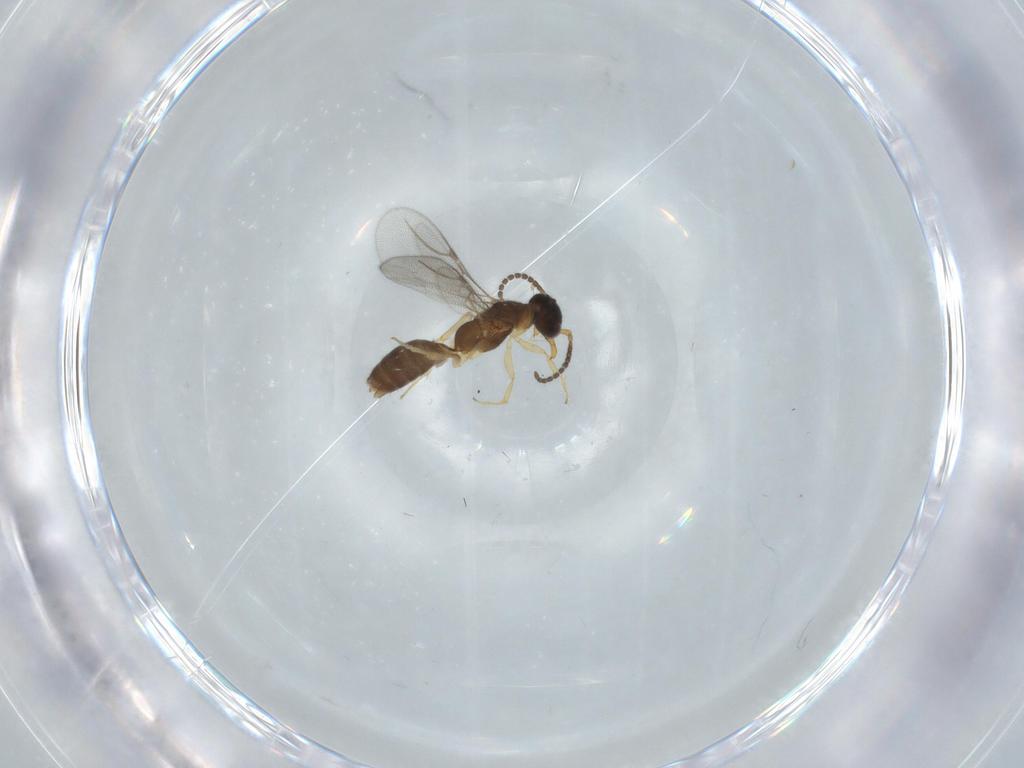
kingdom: Animalia
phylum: Arthropoda
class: Insecta
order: Hymenoptera
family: Bethylidae
